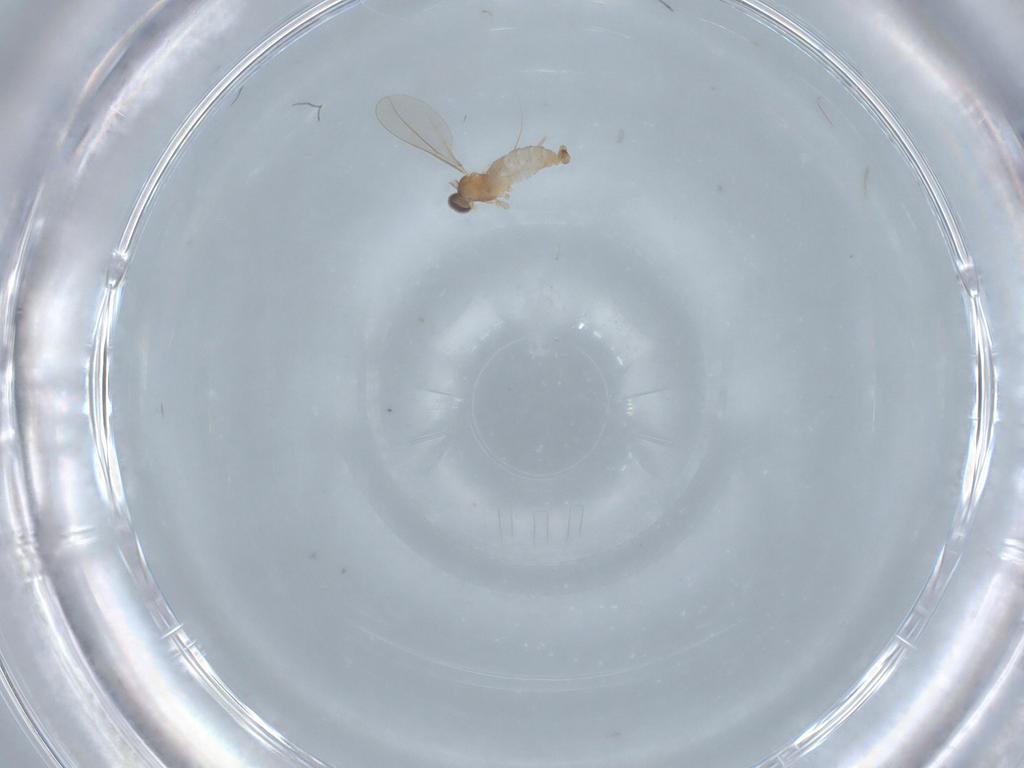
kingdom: Animalia
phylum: Arthropoda
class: Insecta
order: Diptera
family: Cecidomyiidae
